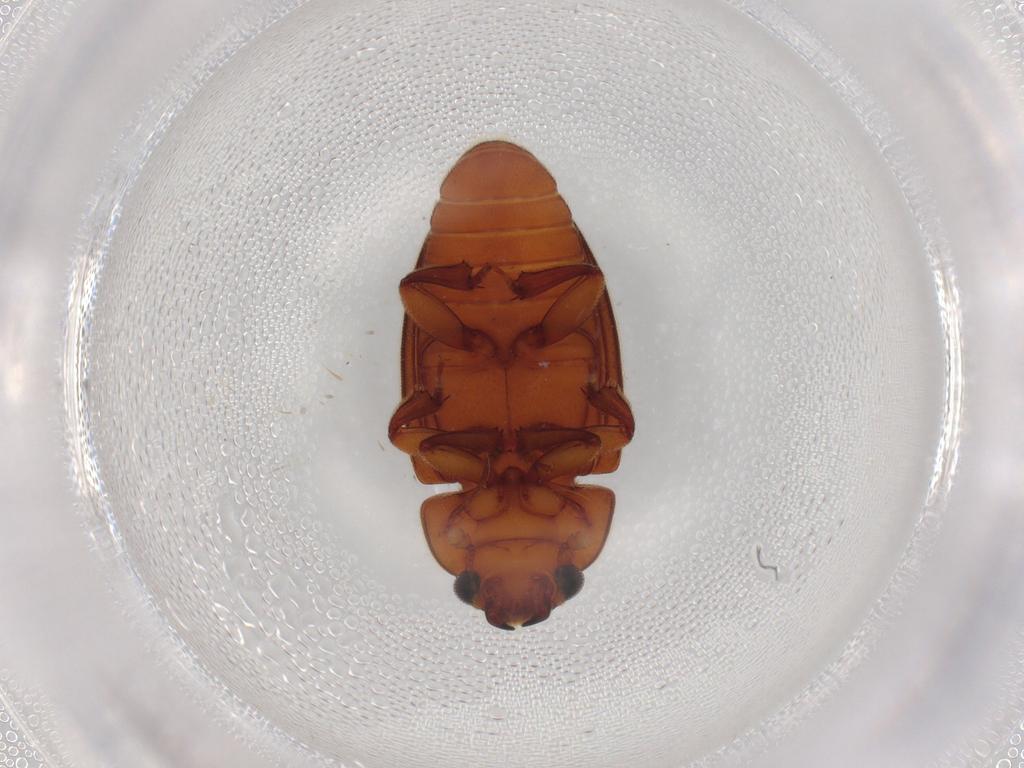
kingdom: Animalia
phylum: Arthropoda
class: Insecta
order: Coleoptera
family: Nitidulidae
